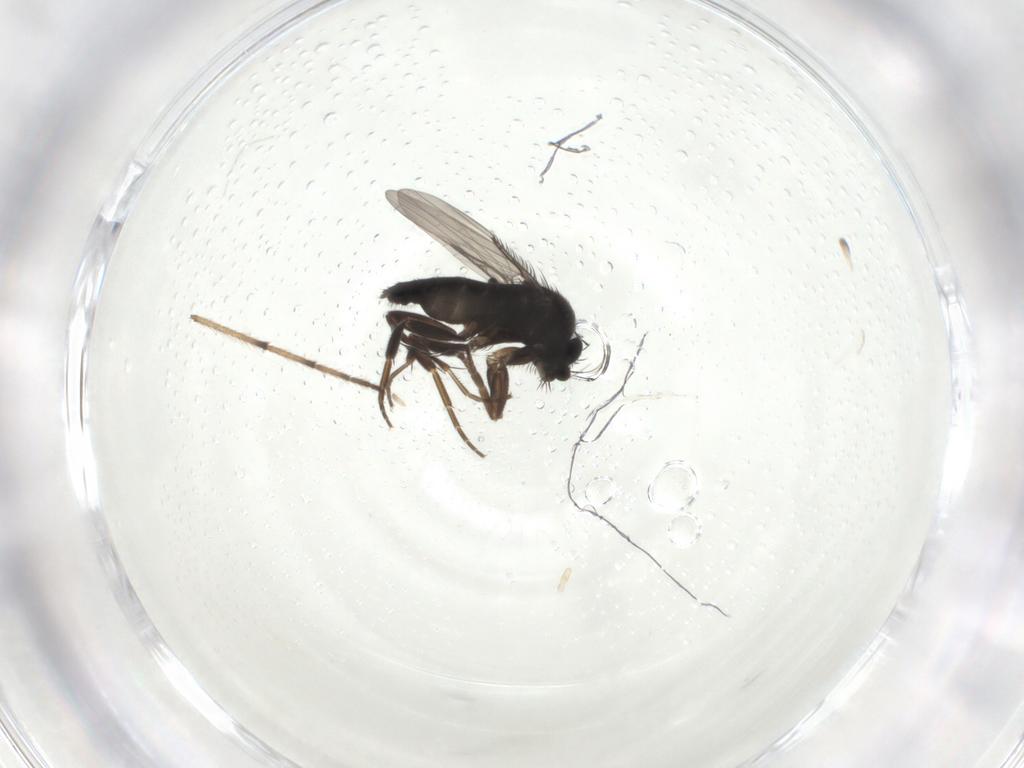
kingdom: Animalia
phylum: Arthropoda
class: Insecta
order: Diptera
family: Phoridae
